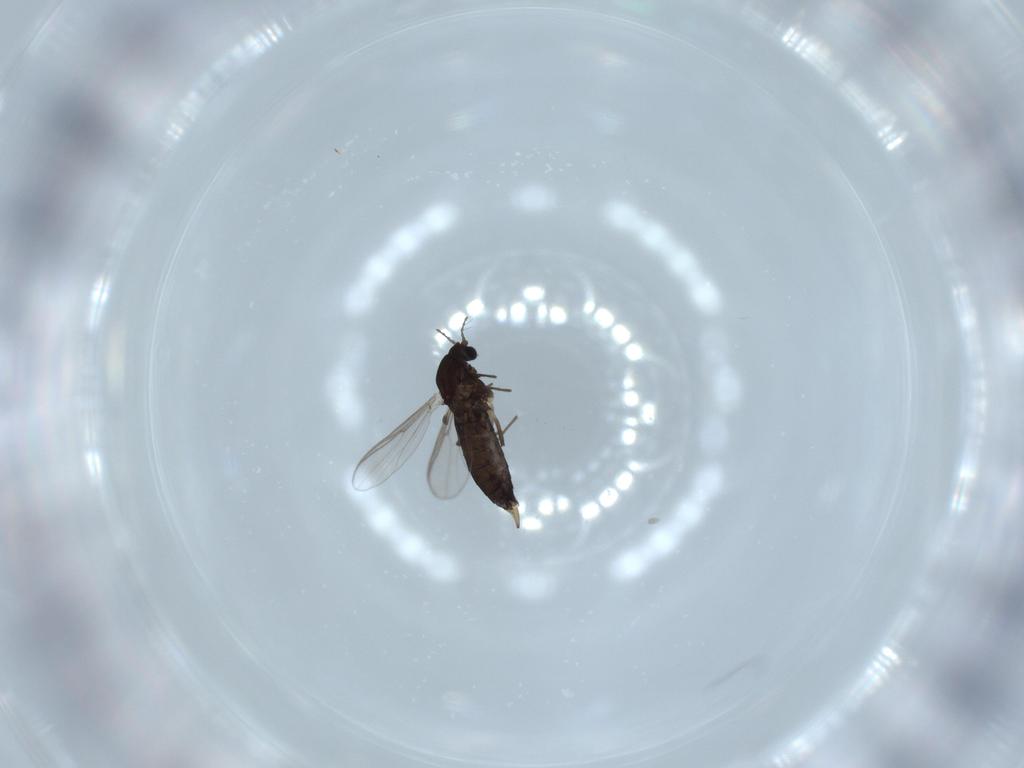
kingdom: Animalia
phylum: Arthropoda
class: Insecta
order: Diptera
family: Chironomidae
